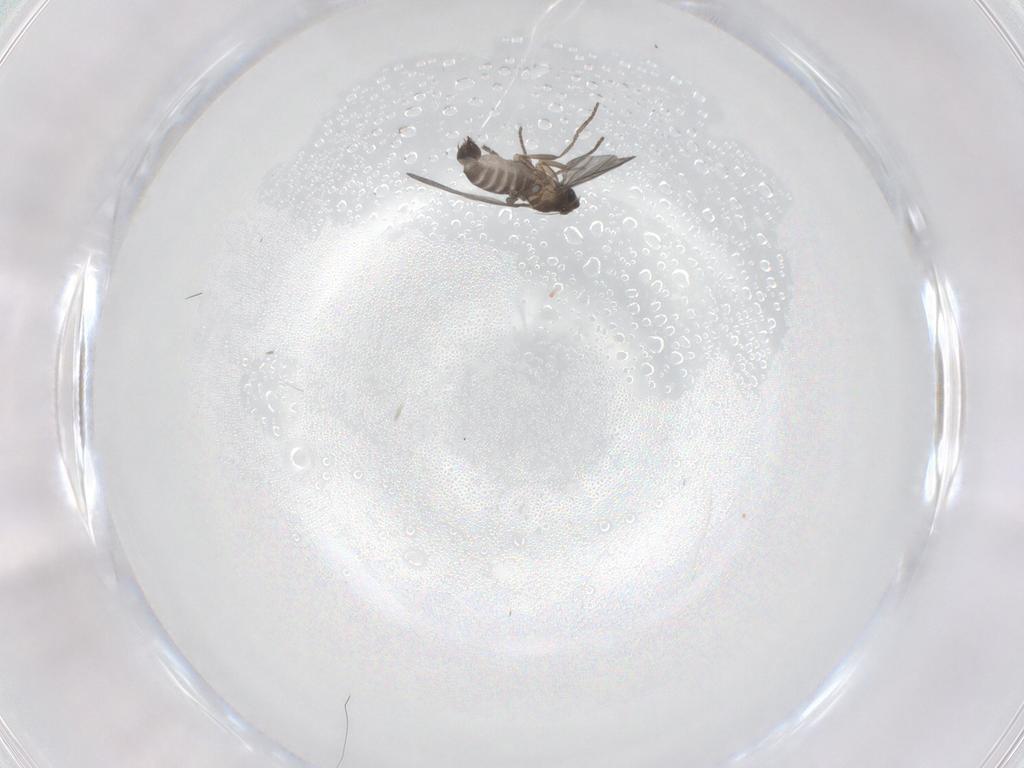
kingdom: Animalia
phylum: Arthropoda
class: Insecta
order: Diptera
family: Phoridae
